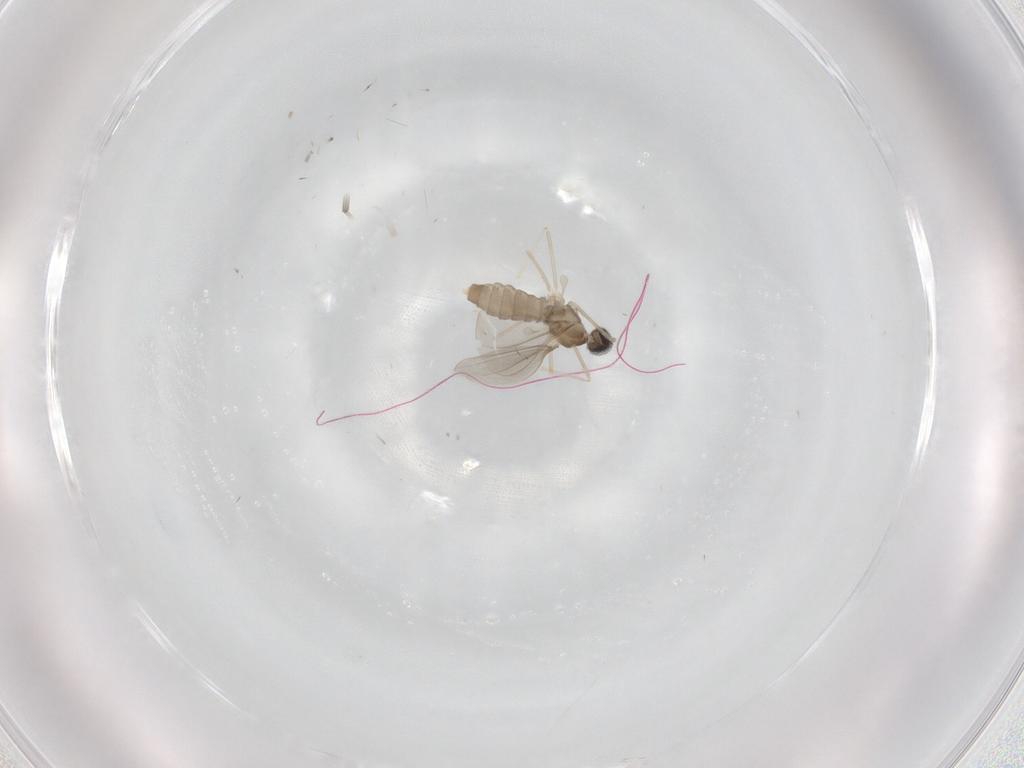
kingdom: Animalia
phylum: Arthropoda
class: Insecta
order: Diptera
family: Cecidomyiidae
